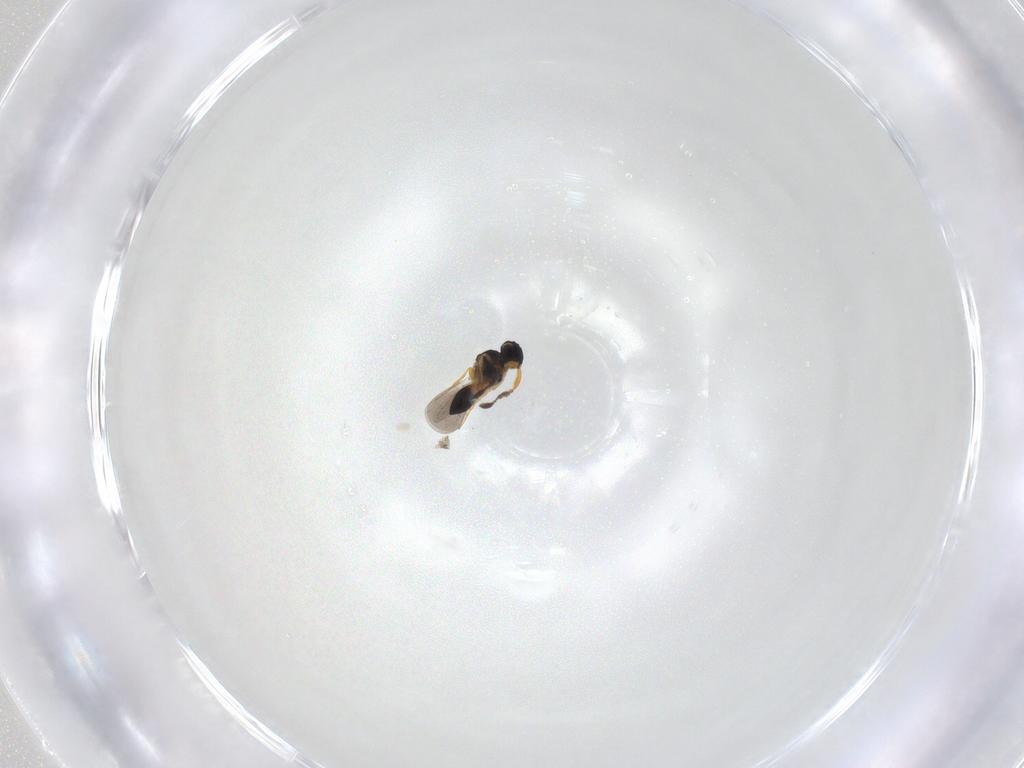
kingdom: Animalia
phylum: Arthropoda
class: Insecta
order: Hymenoptera
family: Platygastridae
